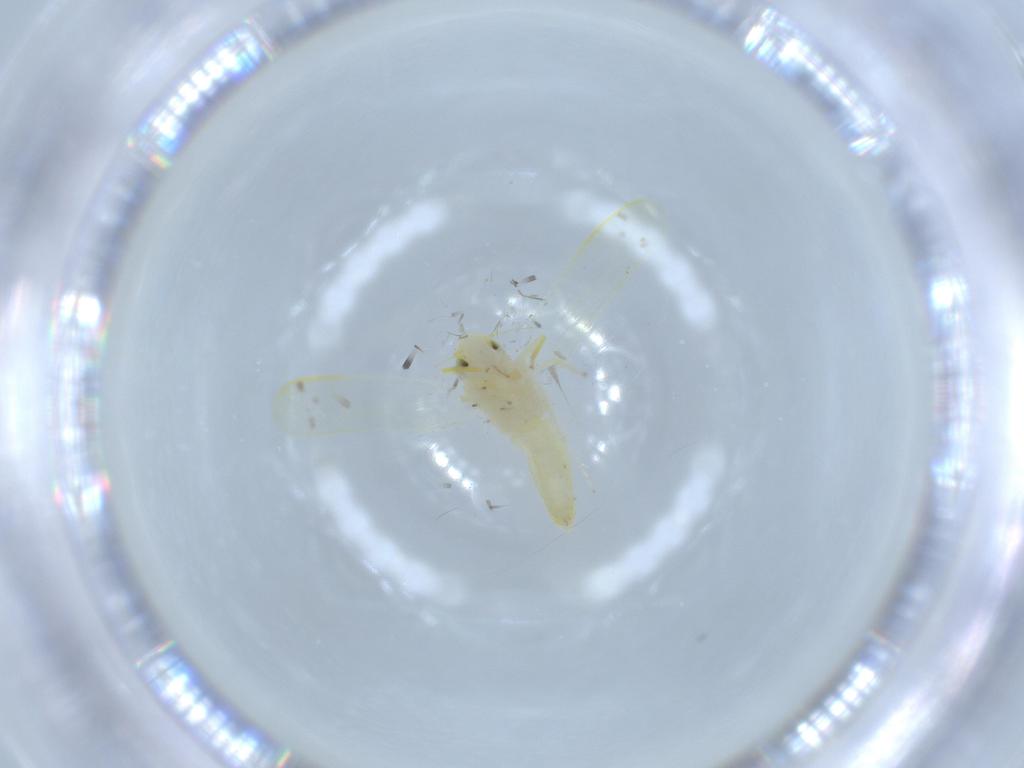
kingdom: Animalia
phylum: Arthropoda
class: Insecta
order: Hemiptera
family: Cicadellidae
